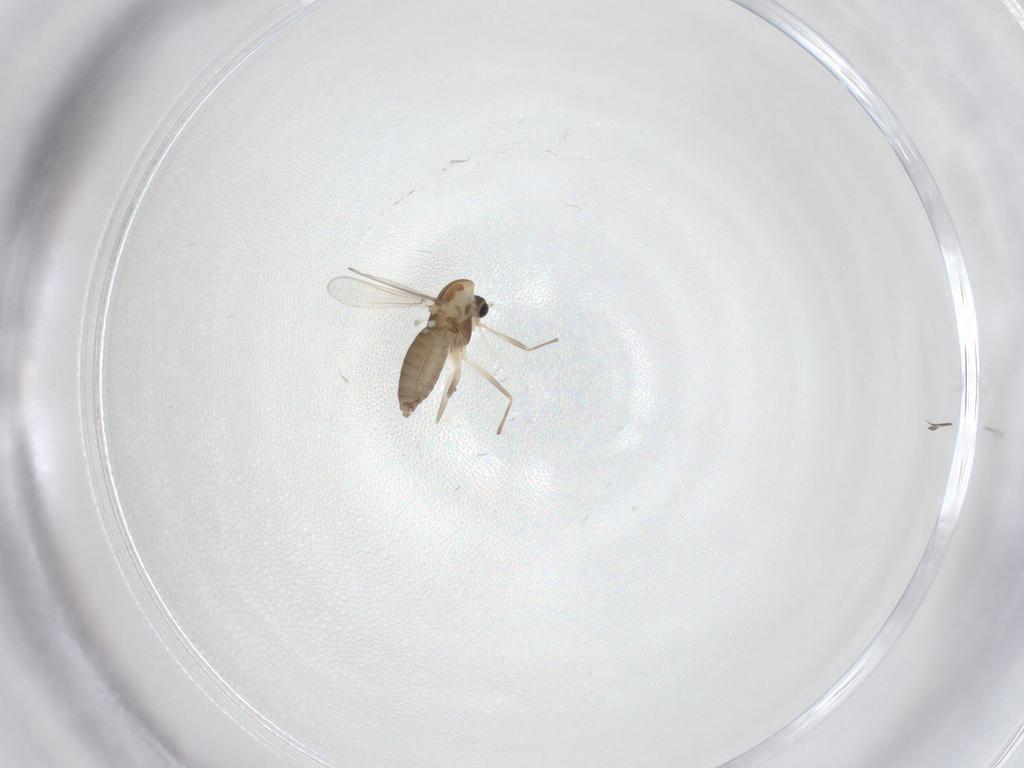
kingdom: Animalia
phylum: Arthropoda
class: Insecta
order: Diptera
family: Chironomidae
